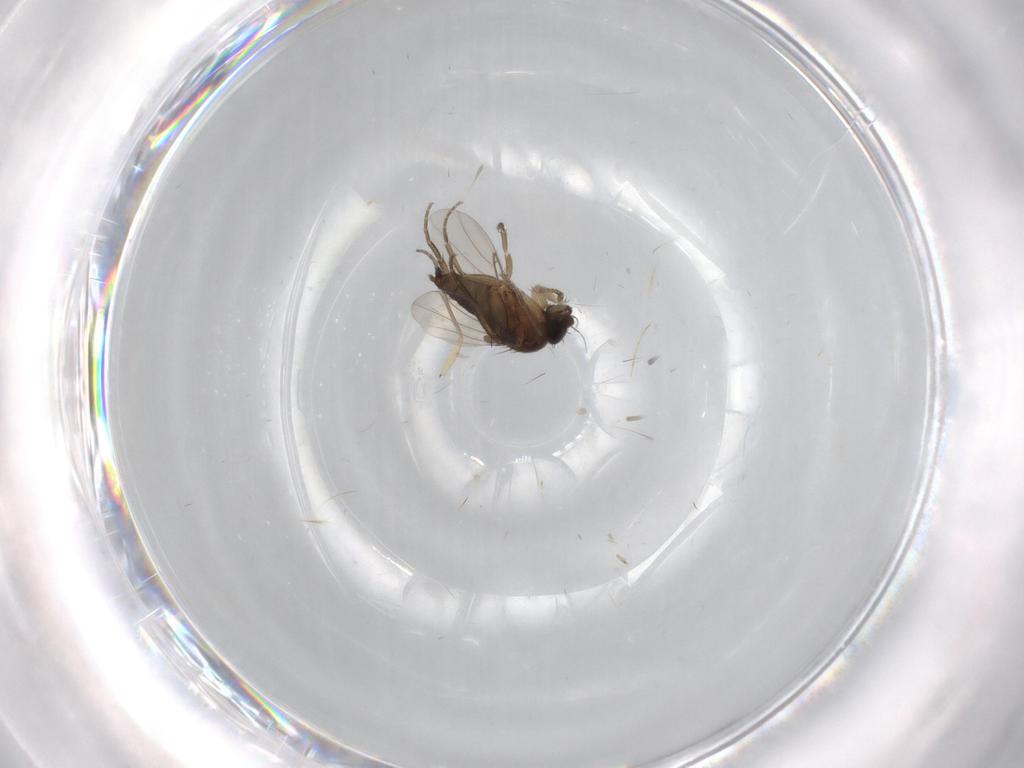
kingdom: Animalia
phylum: Arthropoda
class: Insecta
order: Diptera
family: Phoridae
